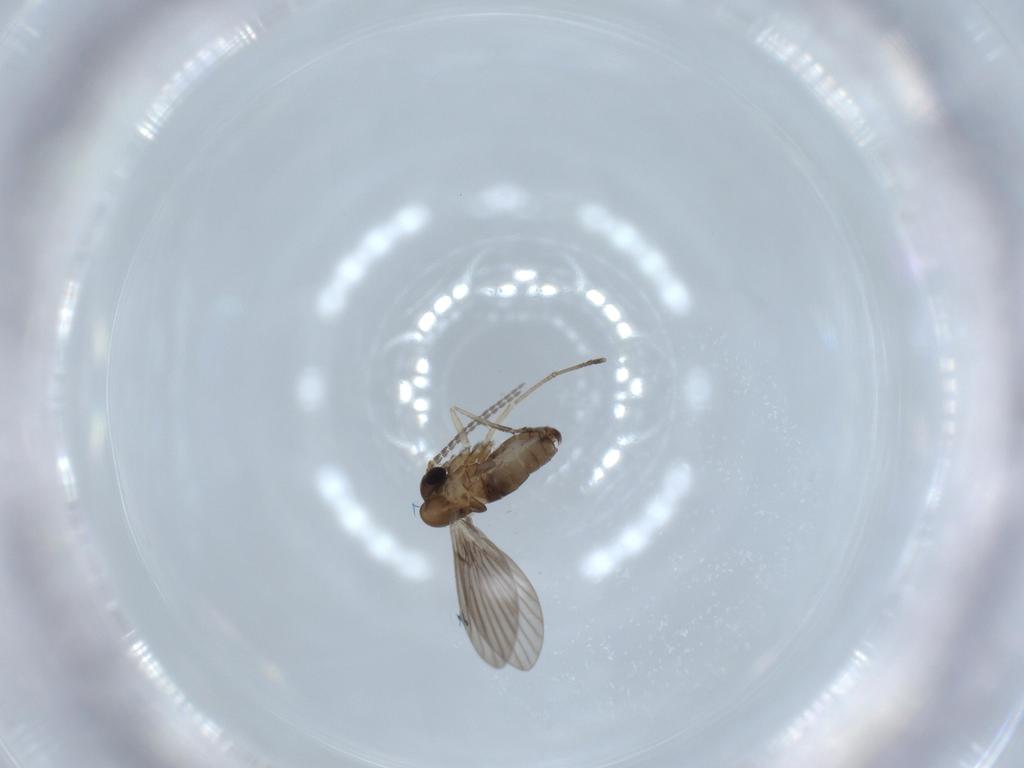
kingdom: Animalia
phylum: Arthropoda
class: Insecta
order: Diptera
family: Psychodidae
